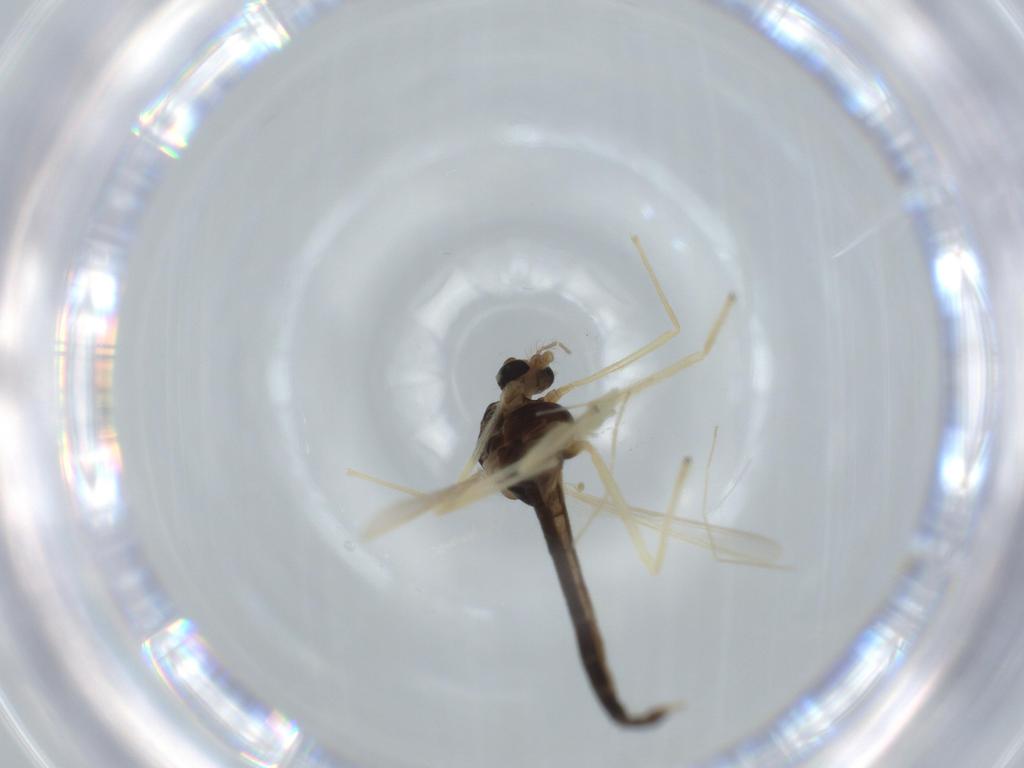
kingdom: Animalia
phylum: Arthropoda
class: Insecta
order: Diptera
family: Chironomidae
